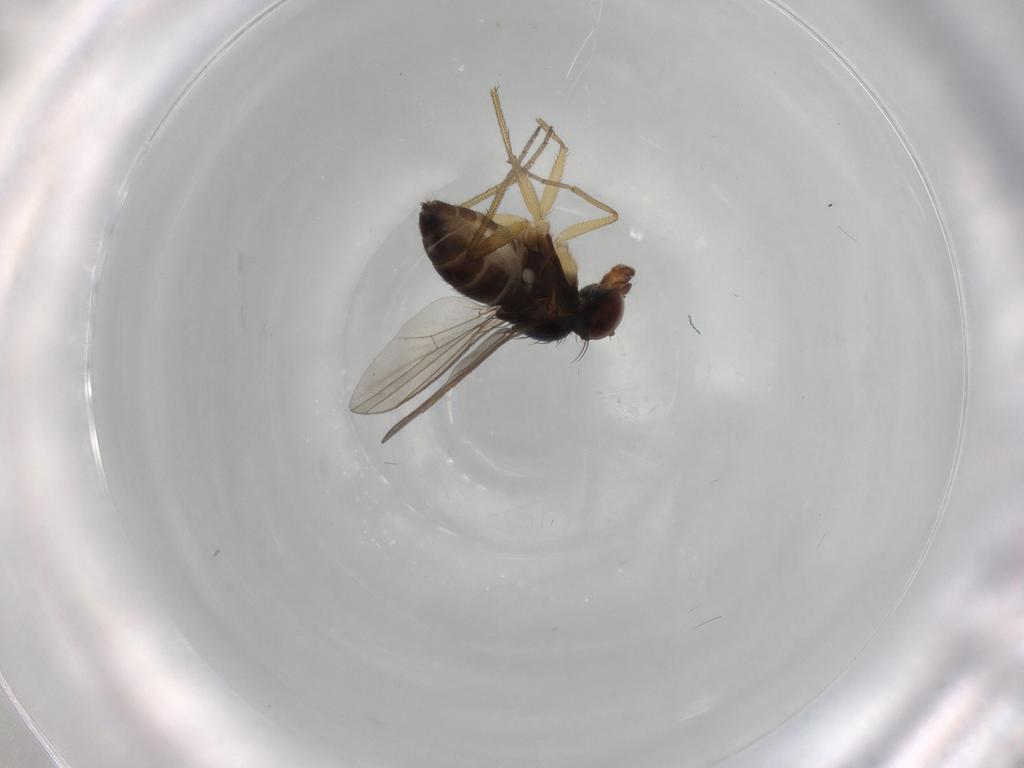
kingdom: Animalia
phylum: Arthropoda
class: Insecta
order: Diptera
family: Dolichopodidae
